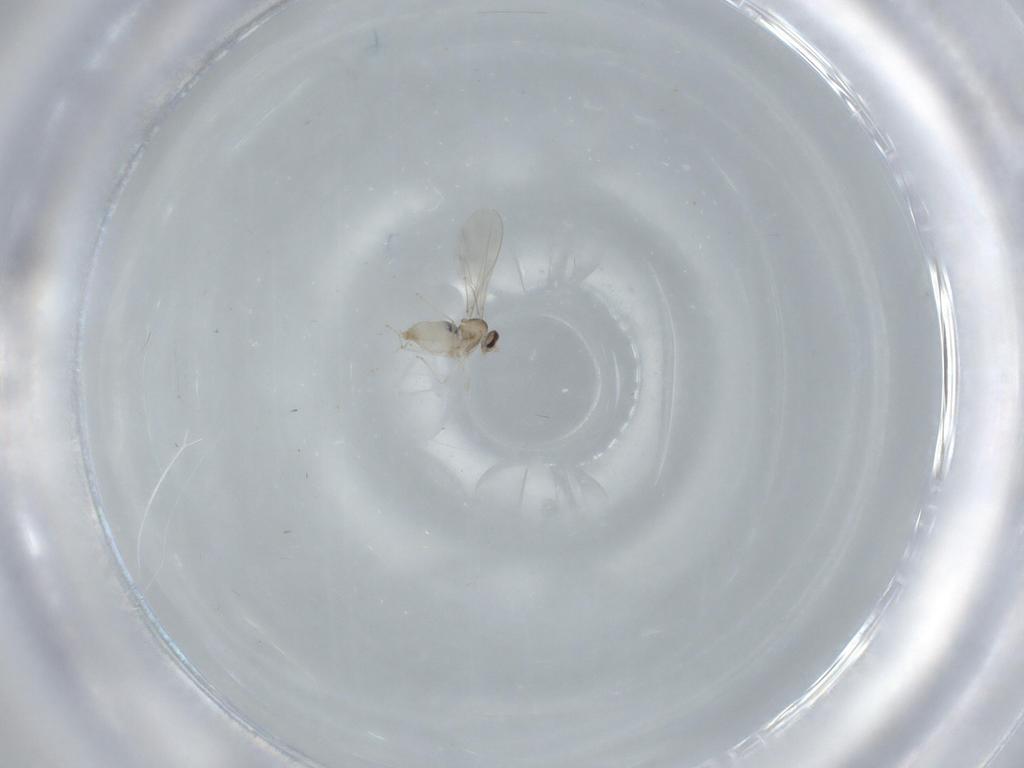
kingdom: Animalia
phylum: Arthropoda
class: Insecta
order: Diptera
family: Cecidomyiidae
